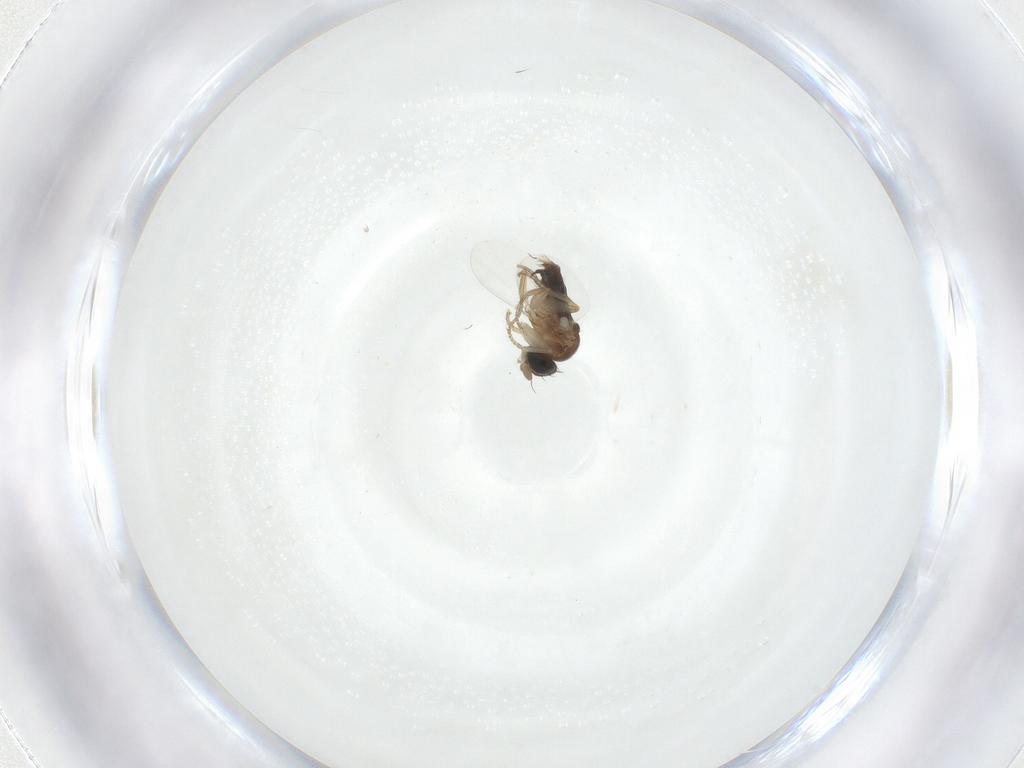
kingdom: Animalia
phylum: Arthropoda
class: Insecta
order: Diptera
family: Phoridae
